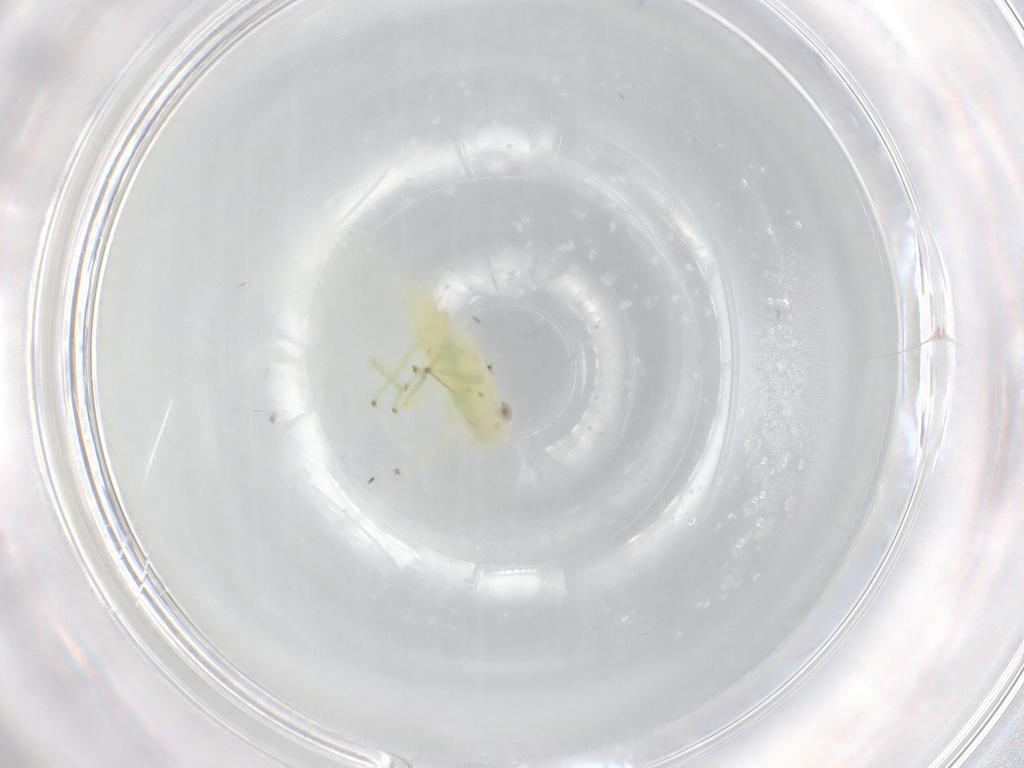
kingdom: Animalia
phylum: Arthropoda
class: Insecta
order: Hemiptera
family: Cicadellidae
